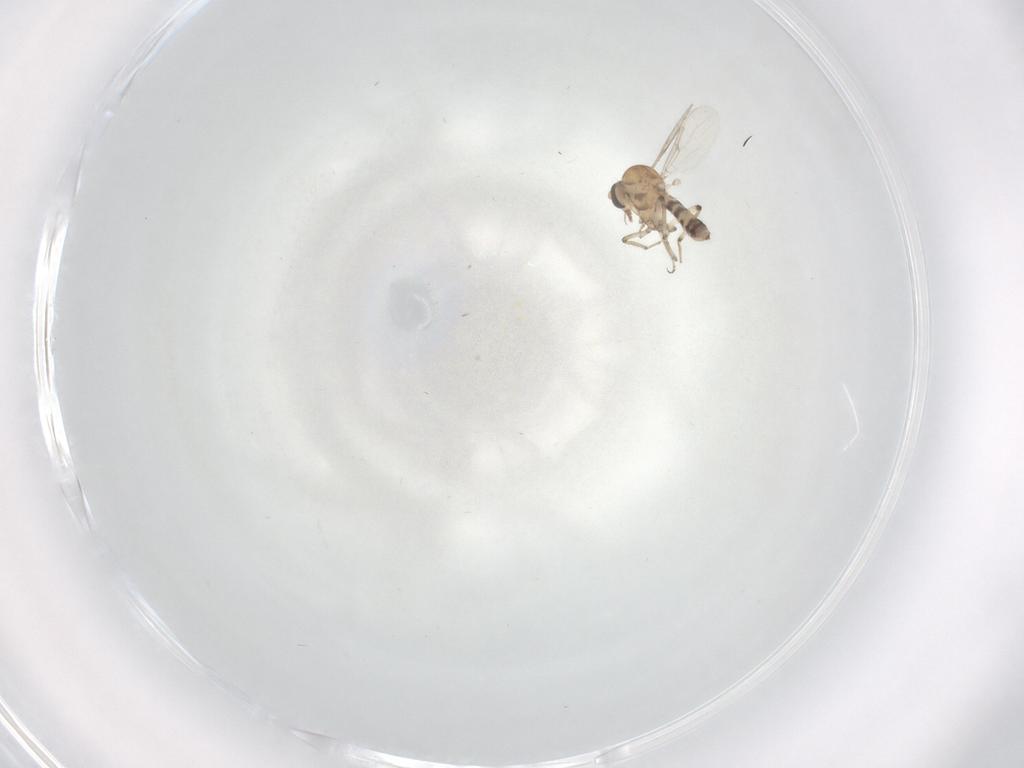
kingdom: Animalia
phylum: Arthropoda
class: Insecta
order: Diptera
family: Ceratopogonidae
